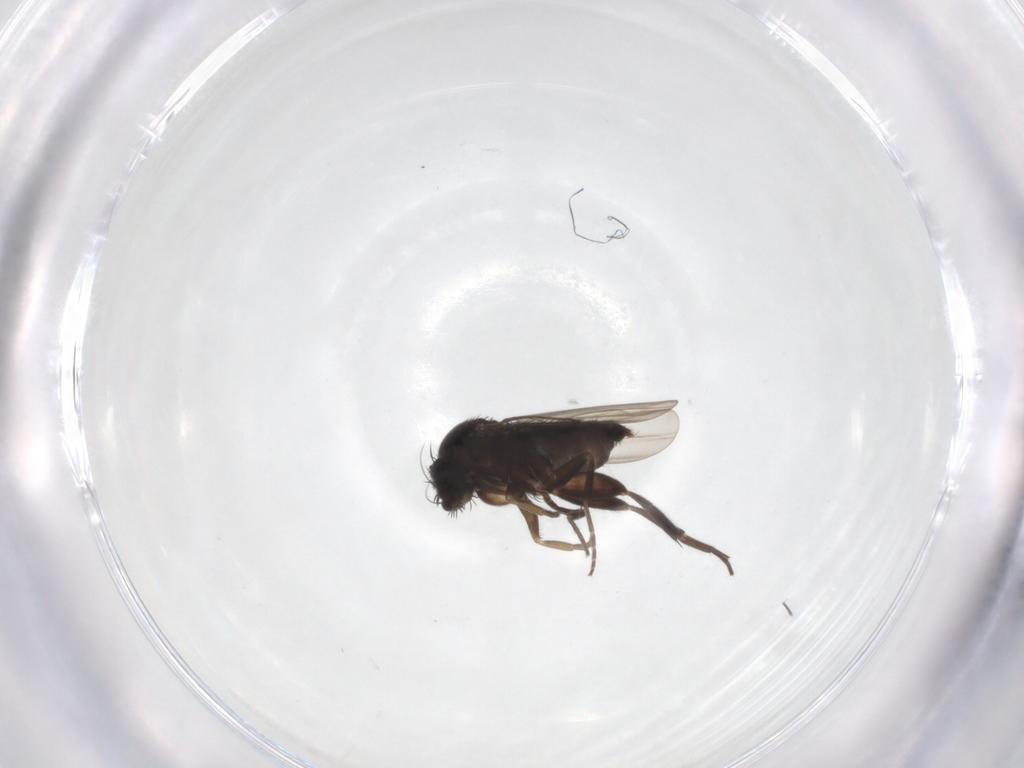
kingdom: Animalia
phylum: Arthropoda
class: Insecta
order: Diptera
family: Phoridae
